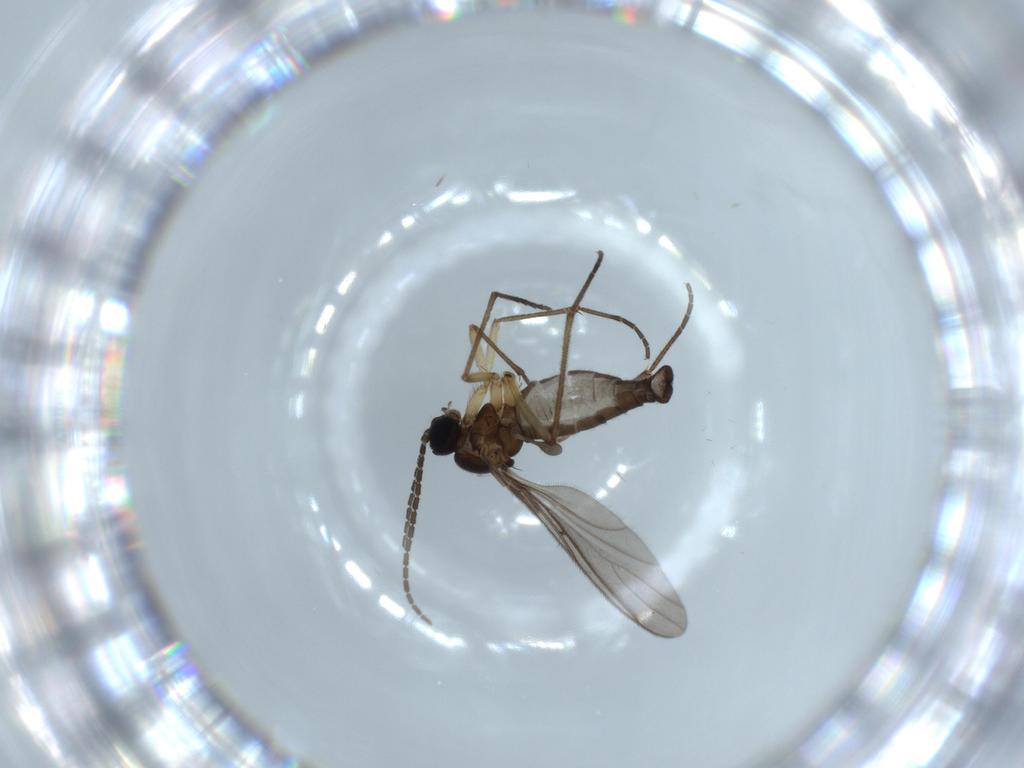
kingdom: Animalia
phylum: Arthropoda
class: Insecta
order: Diptera
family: Sciaridae
